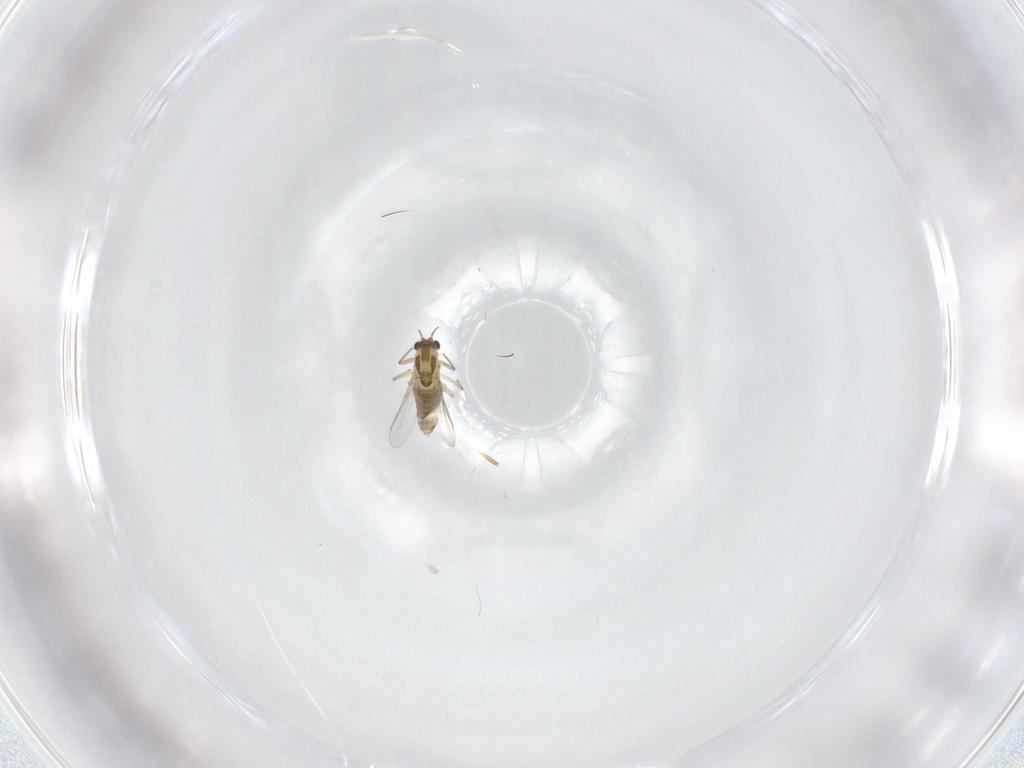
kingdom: Animalia
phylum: Arthropoda
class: Insecta
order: Diptera
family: Chironomidae
